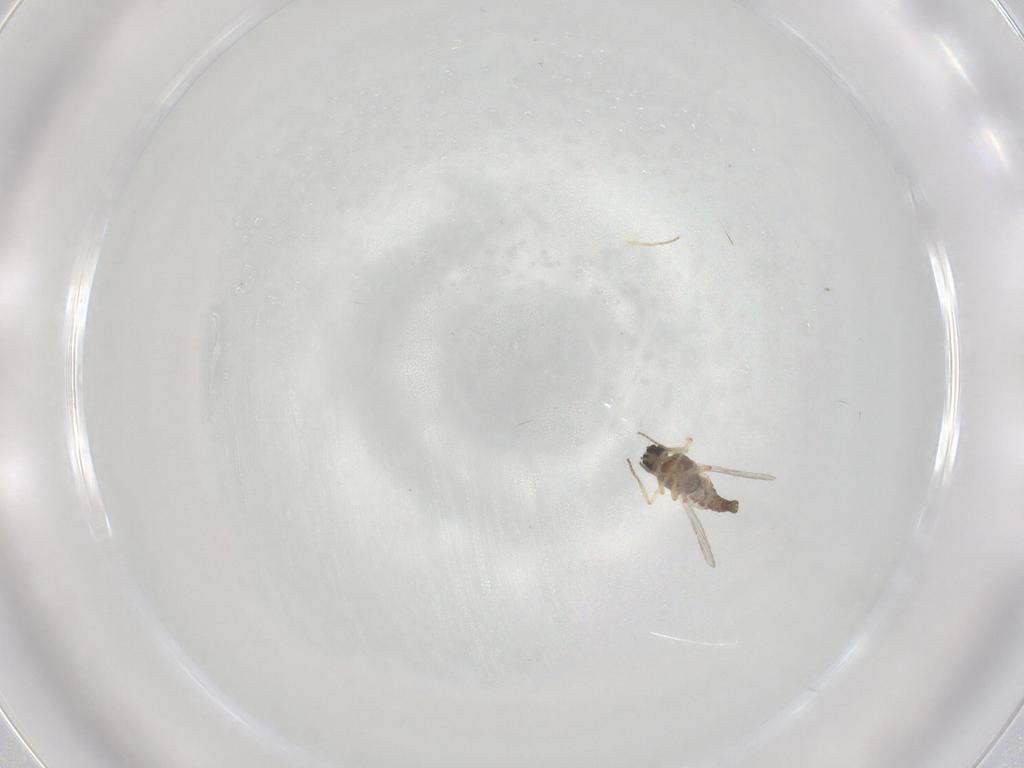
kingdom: Animalia
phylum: Arthropoda
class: Insecta
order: Diptera
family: Ceratopogonidae
